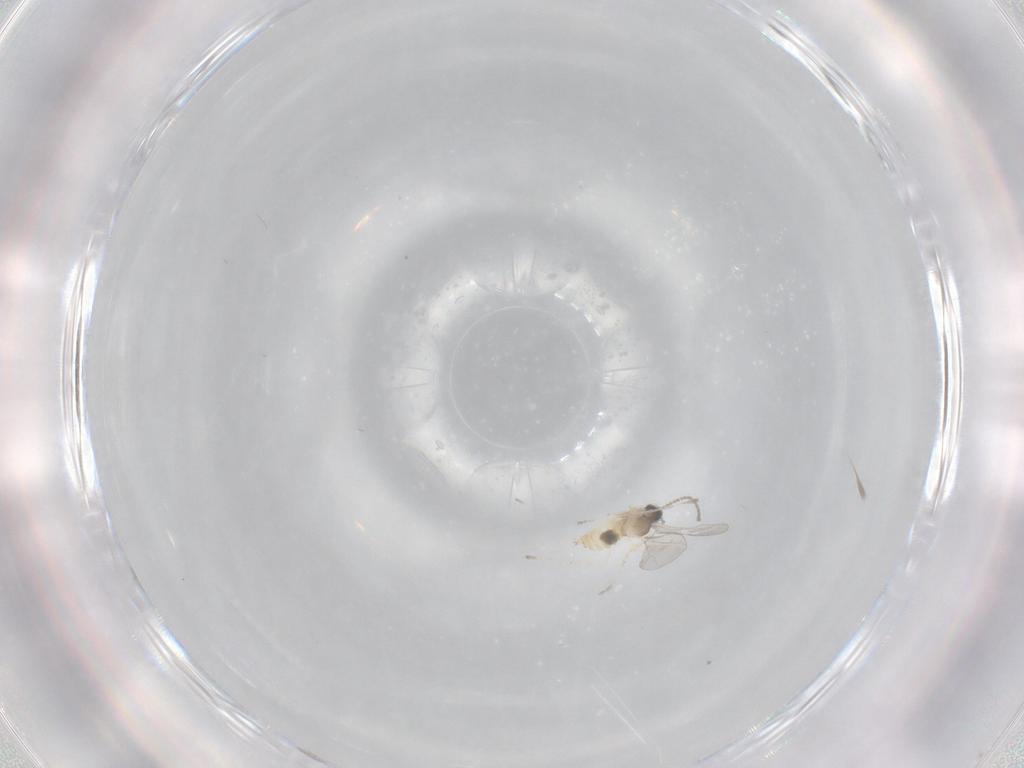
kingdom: Animalia
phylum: Arthropoda
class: Insecta
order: Diptera
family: Cecidomyiidae
